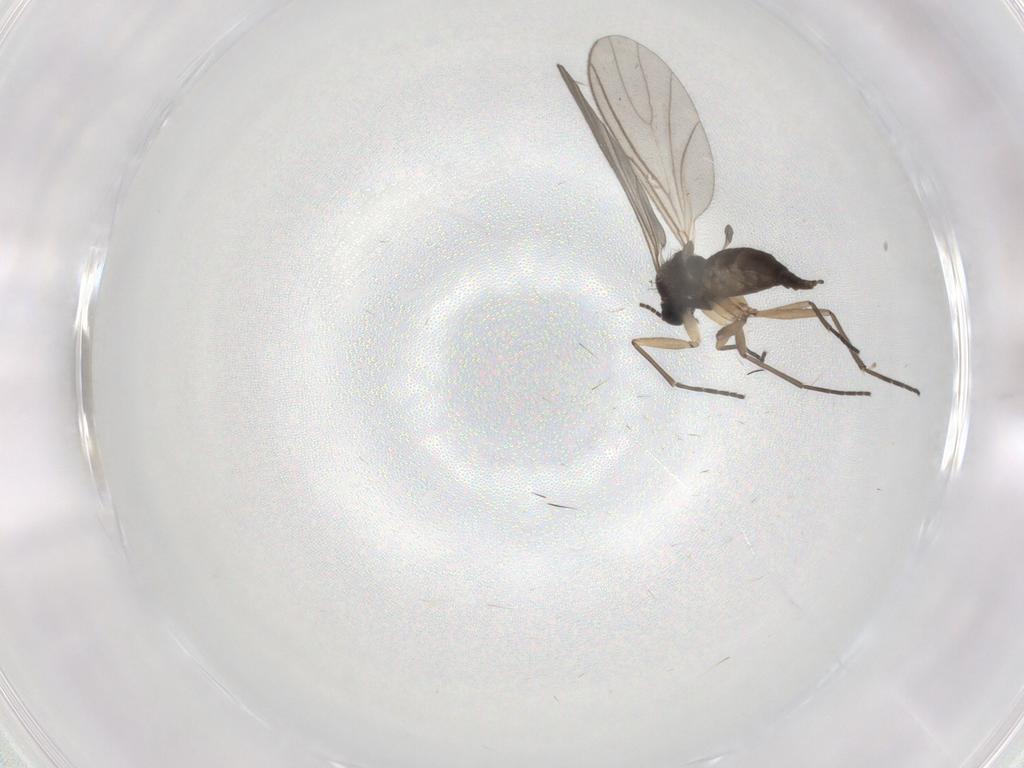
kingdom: Animalia
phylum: Arthropoda
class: Insecta
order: Diptera
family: Sciaridae
